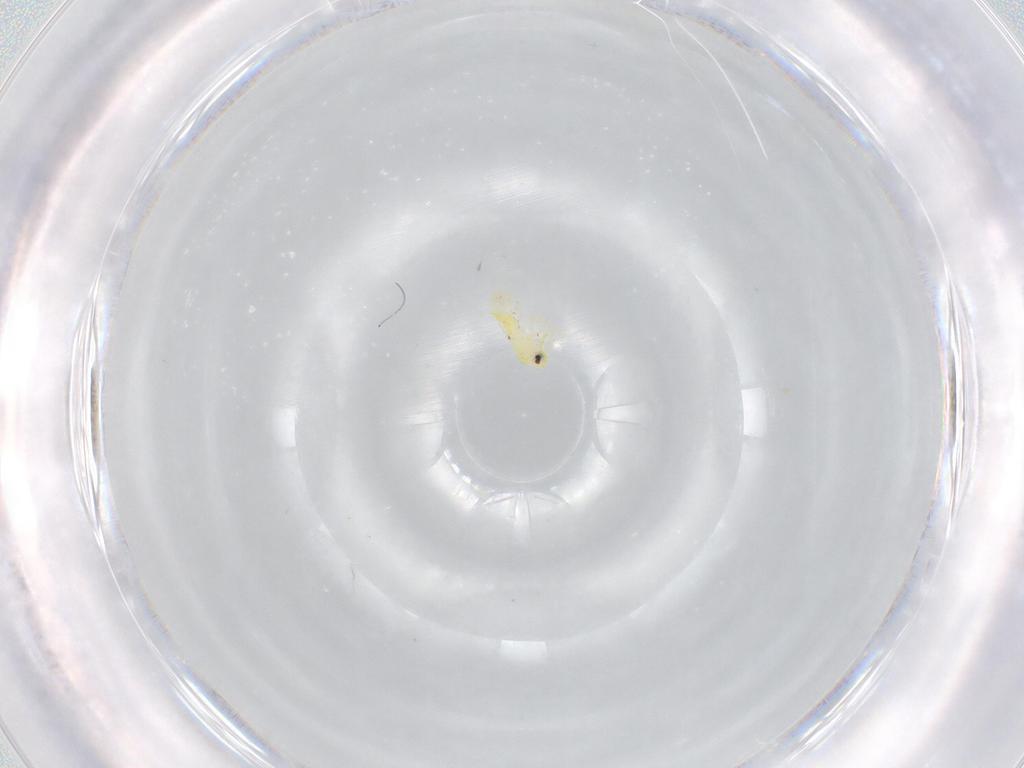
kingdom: Animalia
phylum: Arthropoda
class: Insecta
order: Hemiptera
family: Aleyrodidae
